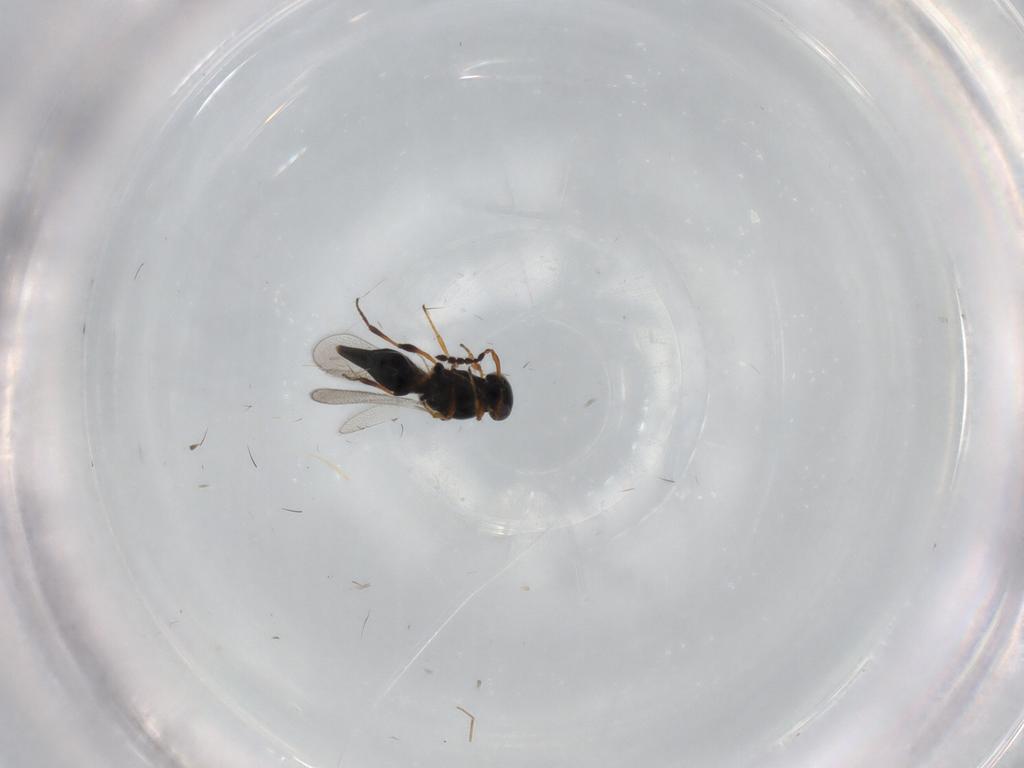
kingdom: Animalia
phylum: Arthropoda
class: Insecta
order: Hymenoptera
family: Platygastridae
